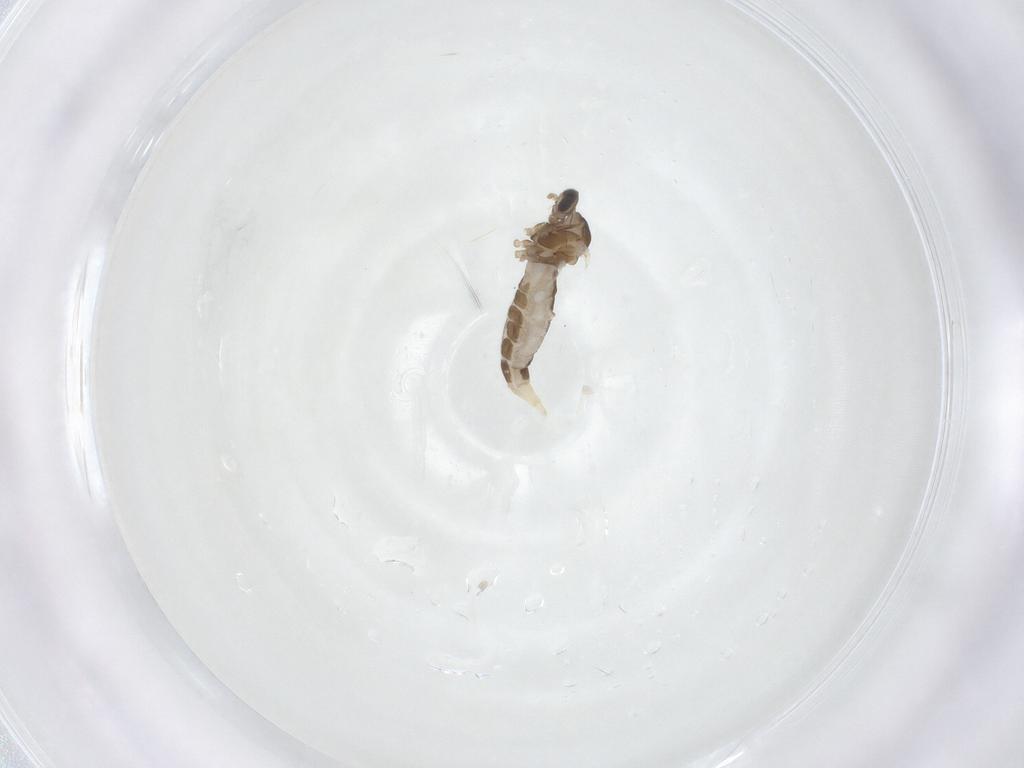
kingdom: Animalia
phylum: Arthropoda
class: Insecta
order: Diptera
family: Cecidomyiidae
